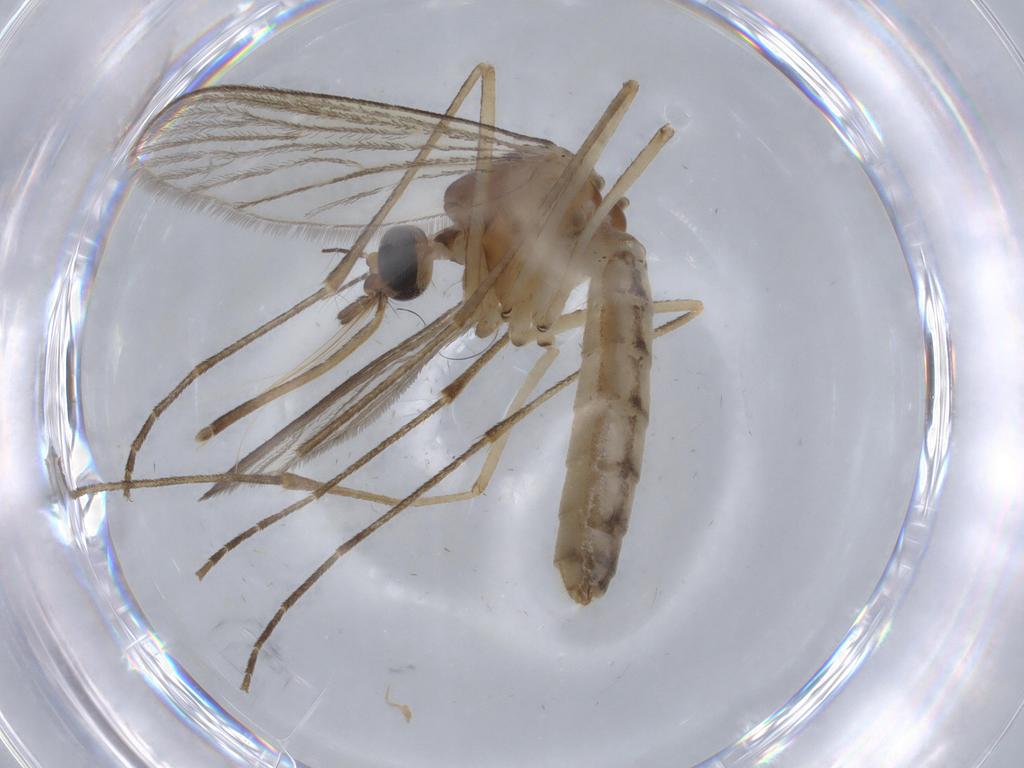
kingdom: Animalia
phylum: Arthropoda
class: Insecta
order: Diptera
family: Culicidae
